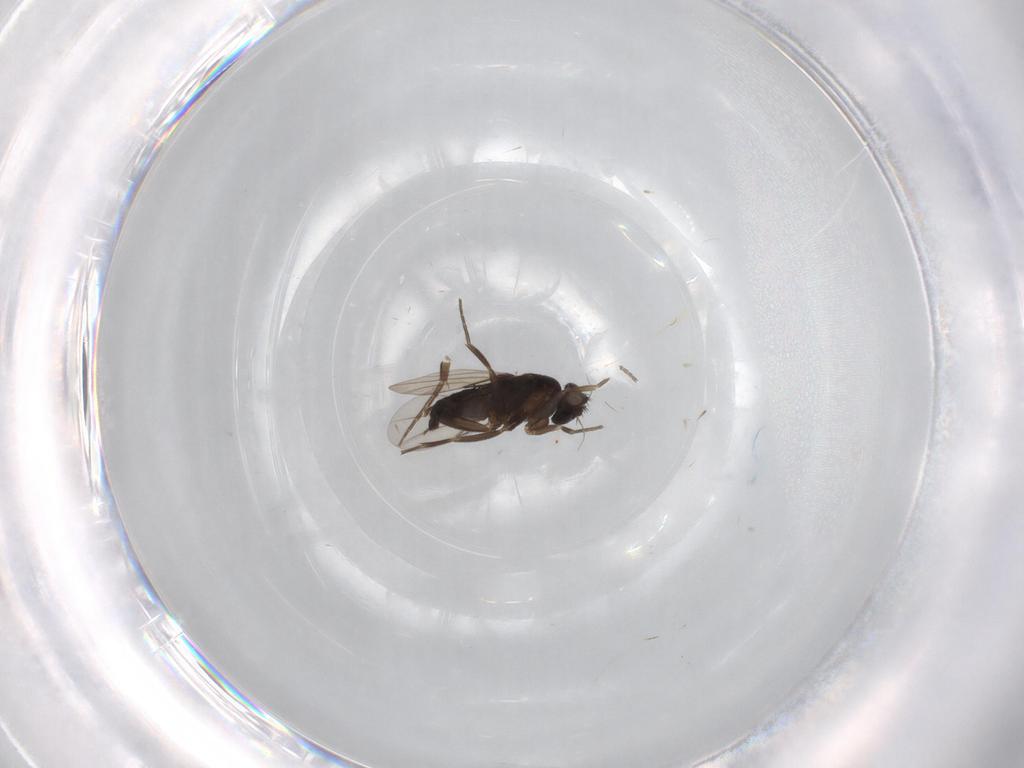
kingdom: Animalia
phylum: Arthropoda
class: Insecta
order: Diptera
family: Phoridae
